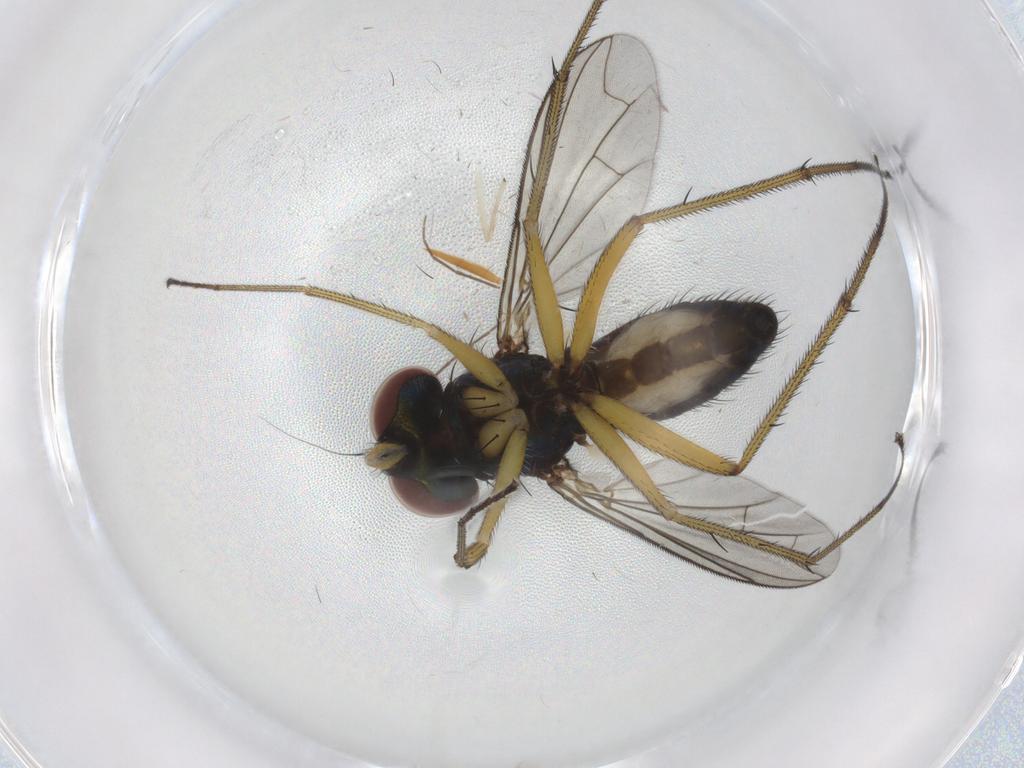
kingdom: Animalia
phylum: Arthropoda
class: Insecta
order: Diptera
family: Dolichopodidae
